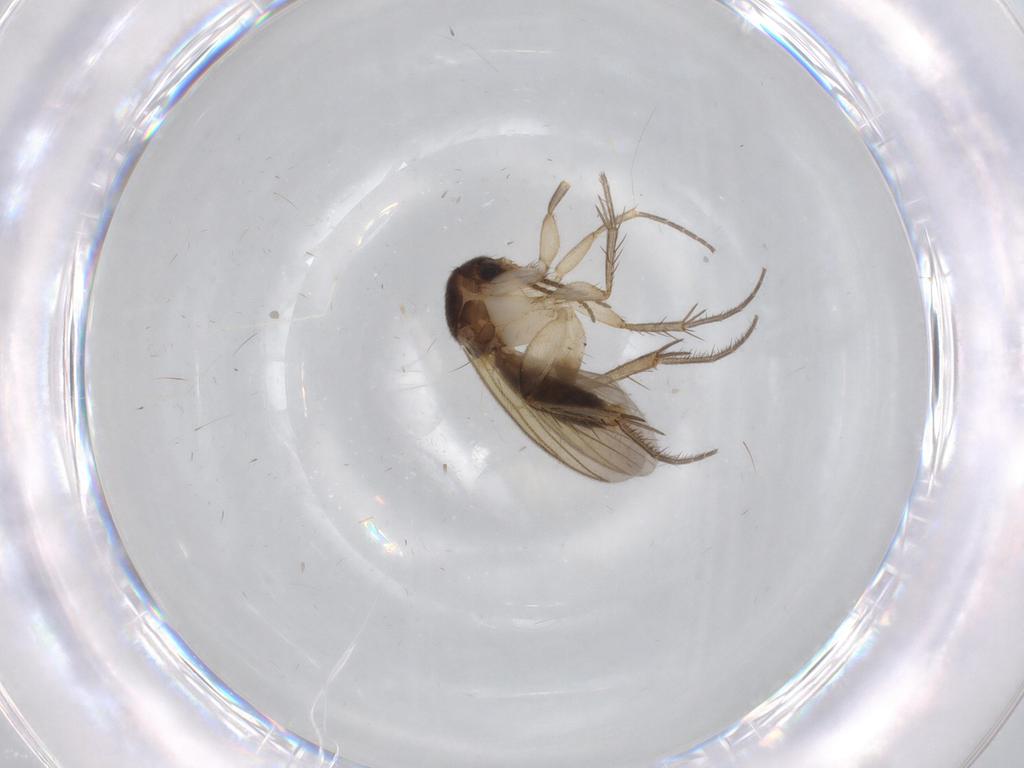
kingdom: Animalia
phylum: Arthropoda
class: Insecta
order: Diptera
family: Cecidomyiidae
